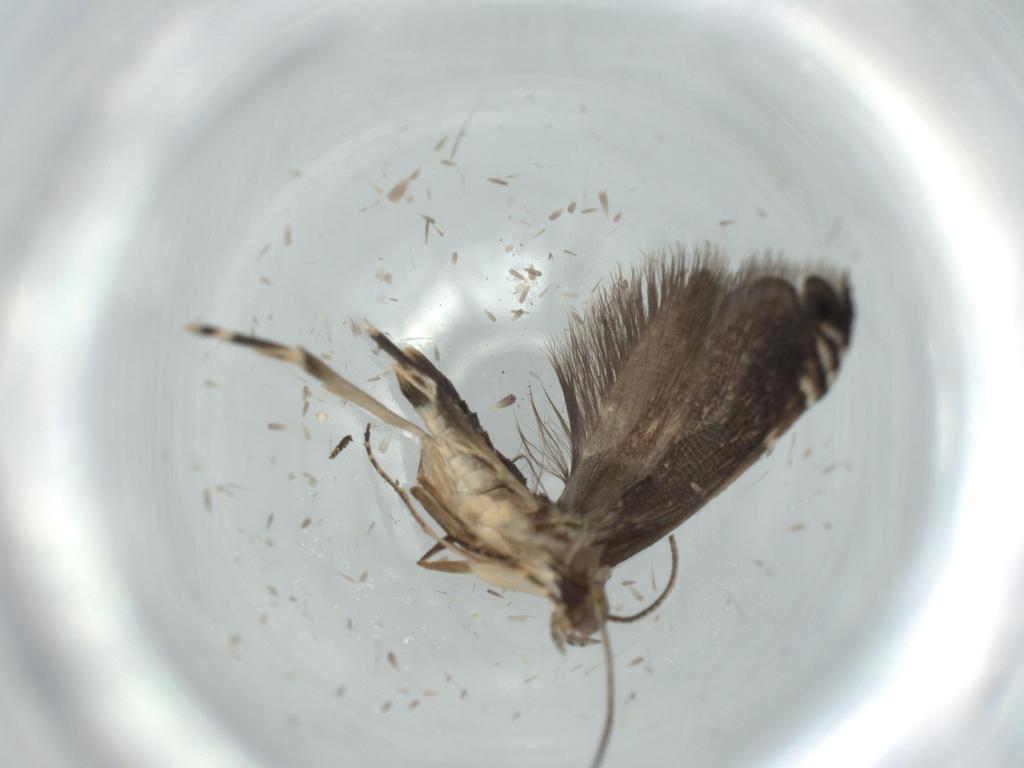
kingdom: Animalia
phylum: Arthropoda
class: Insecta
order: Lepidoptera
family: Glyphipterigidae
